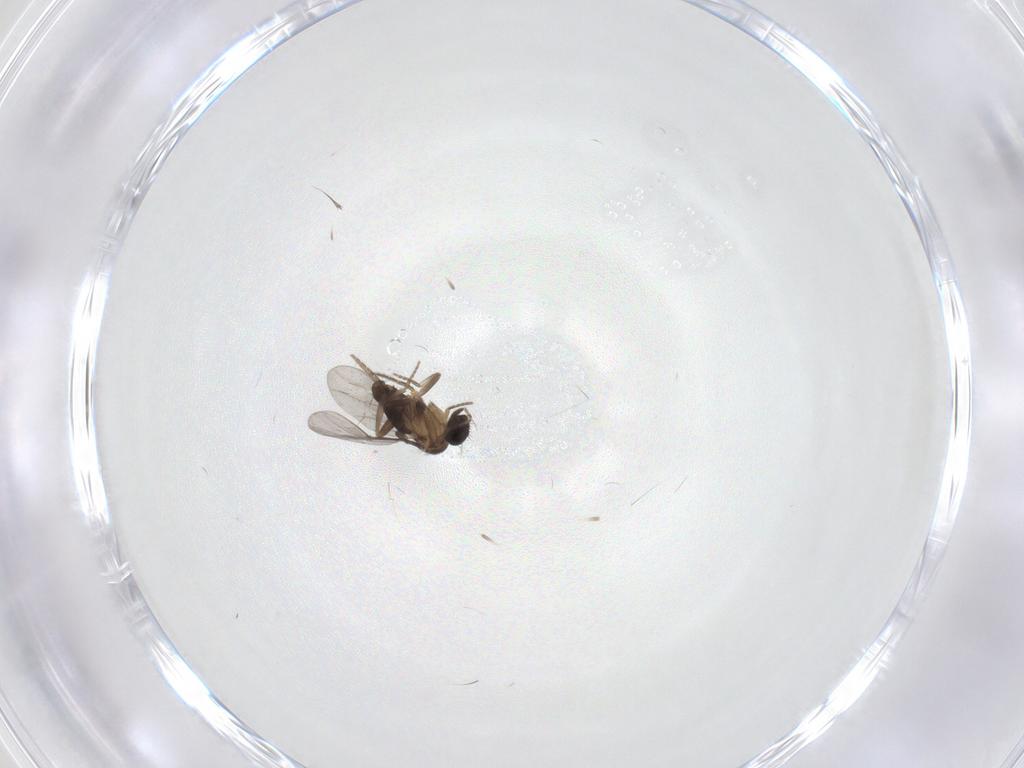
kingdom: Animalia
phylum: Arthropoda
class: Insecta
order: Diptera
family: Phoridae
